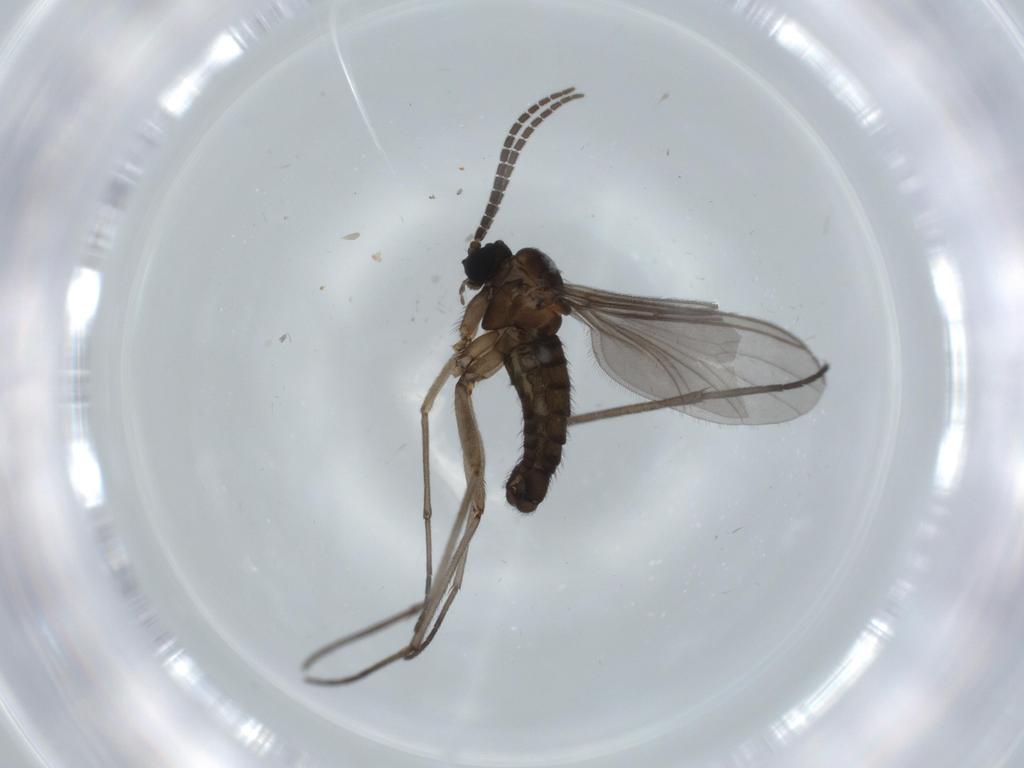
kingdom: Animalia
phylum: Arthropoda
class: Insecta
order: Diptera
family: Sciaridae
